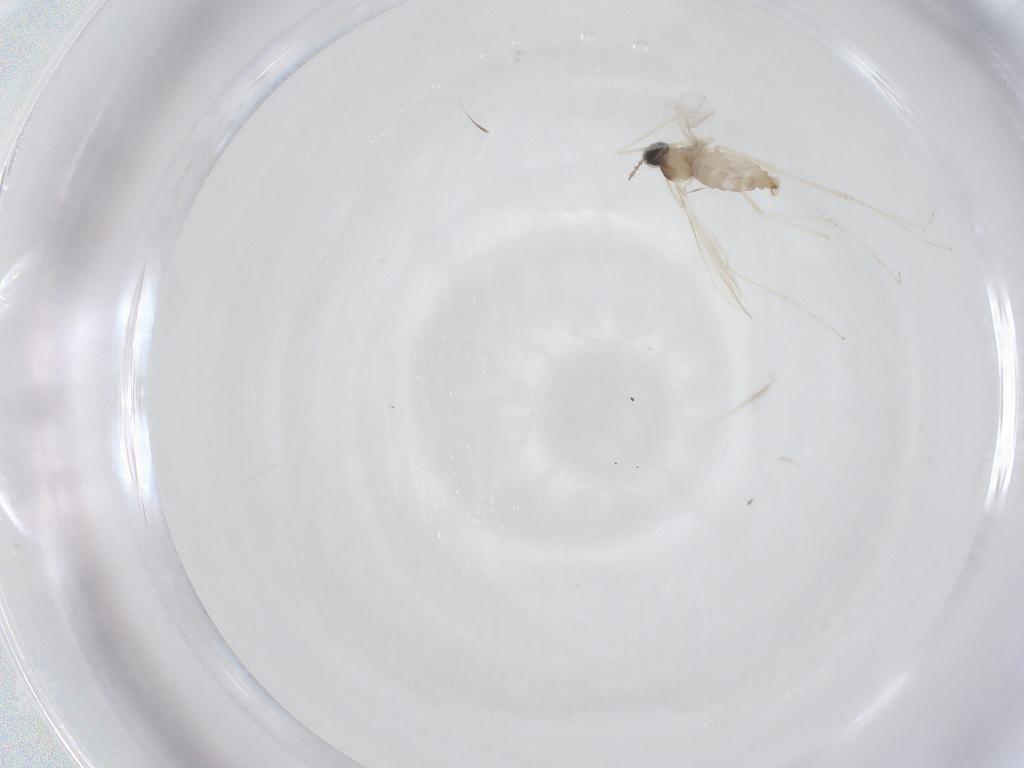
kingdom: Animalia
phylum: Arthropoda
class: Insecta
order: Diptera
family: Cecidomyiidae
